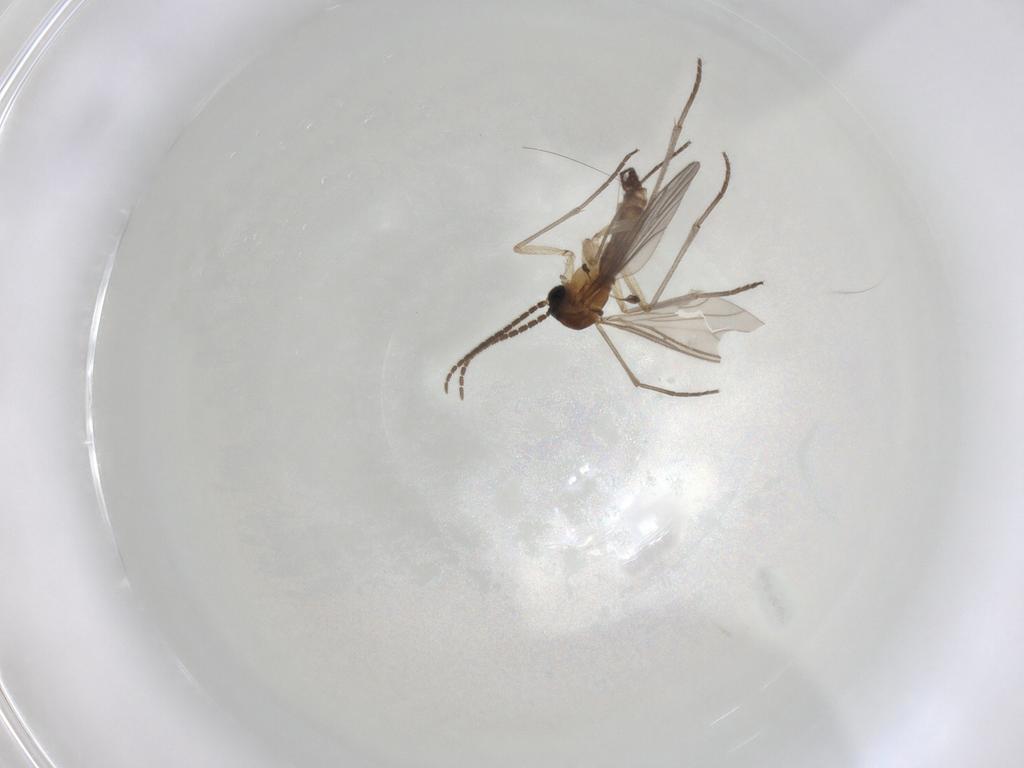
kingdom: Animalia
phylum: Arthropoda
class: Insecta
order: Diptera
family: Sciaridae
